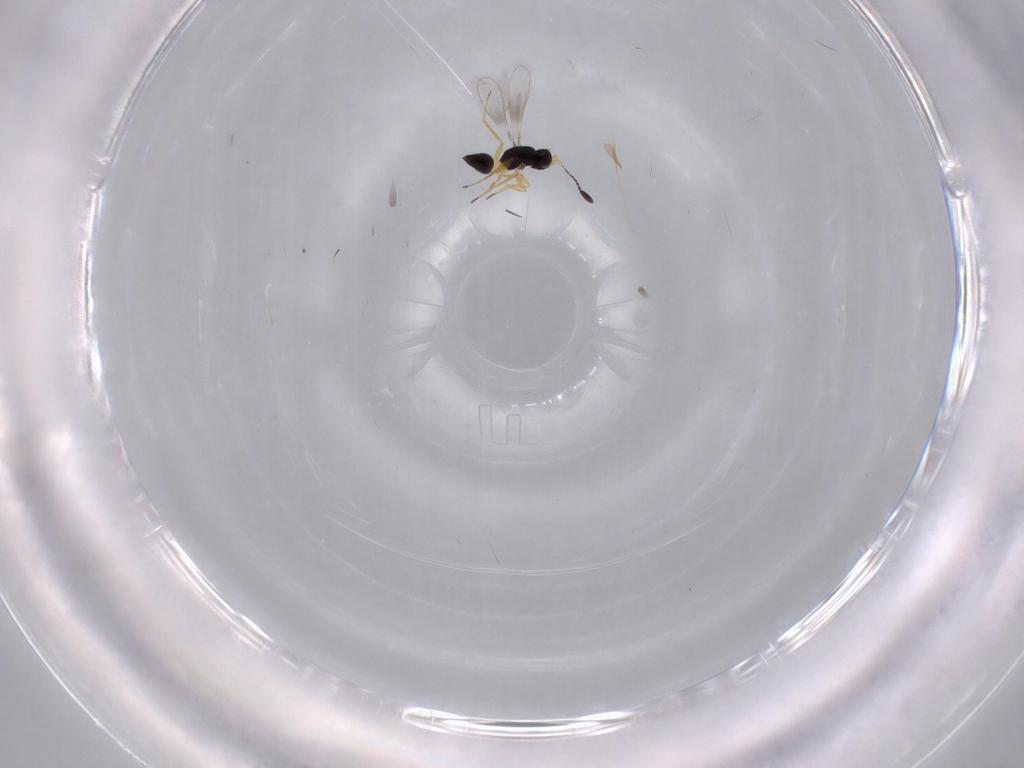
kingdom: Animalia
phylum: Arthropoda
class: Insecta
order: Hymenoptera
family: Mymaridae
